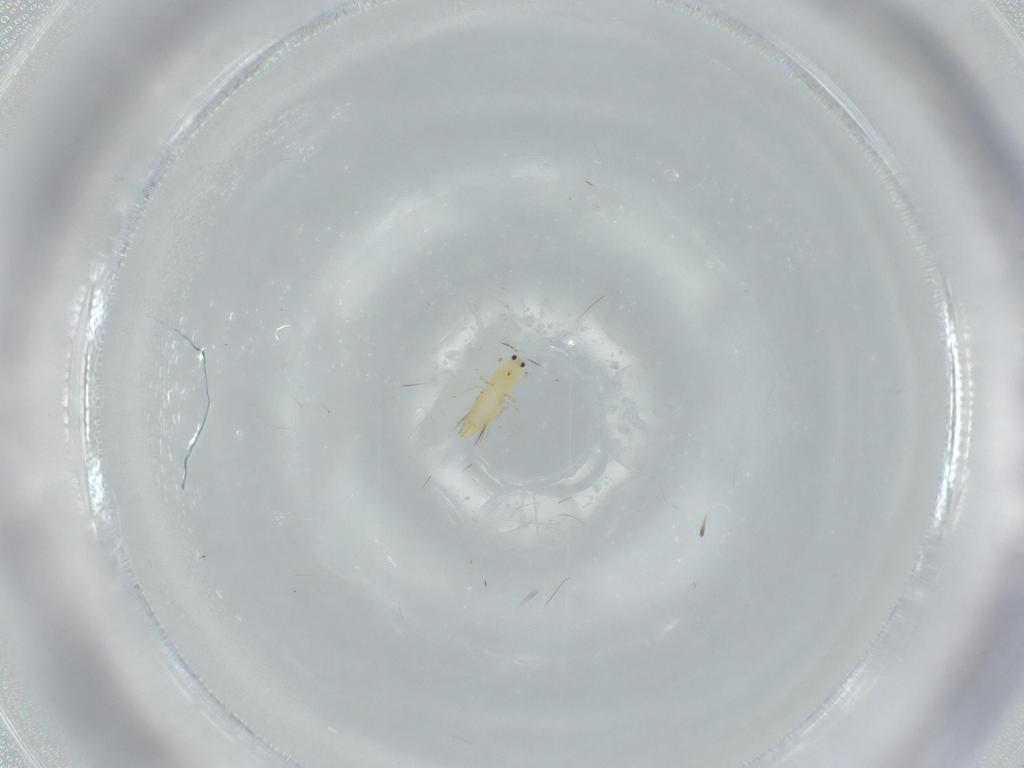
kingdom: Animalia
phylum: Arthropoda
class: Insecta
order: Thysanoptera
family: Thripidae
